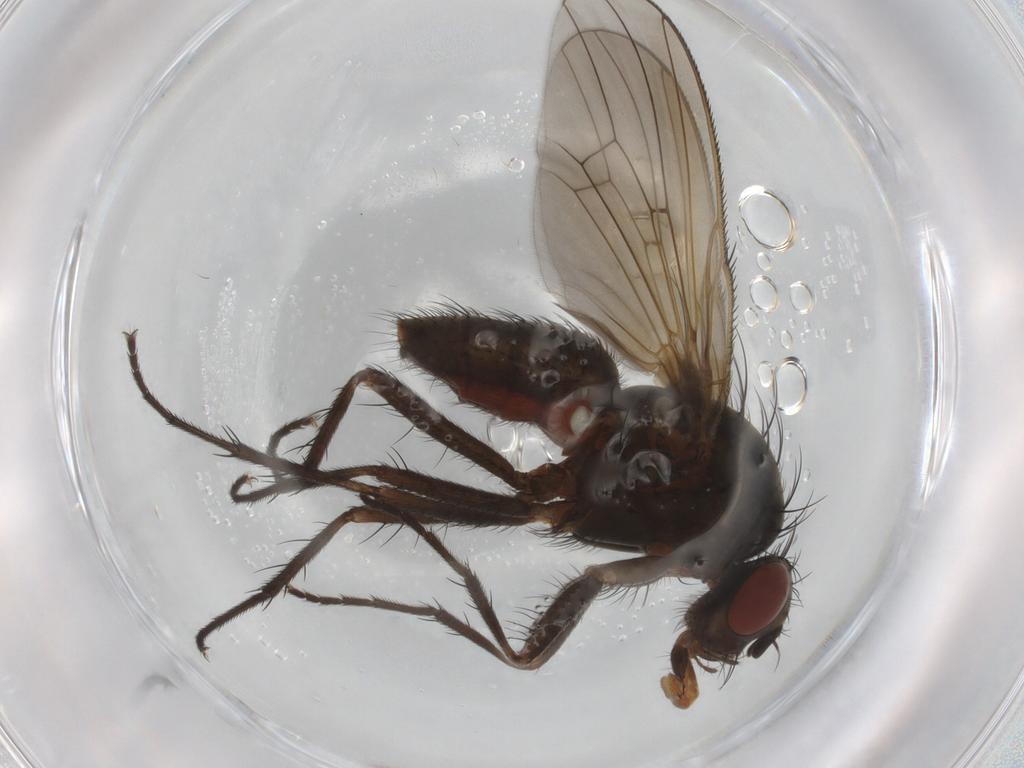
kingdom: Animalia
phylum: Arthropoda
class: Insecta
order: Diptera
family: Anthomyiidae
